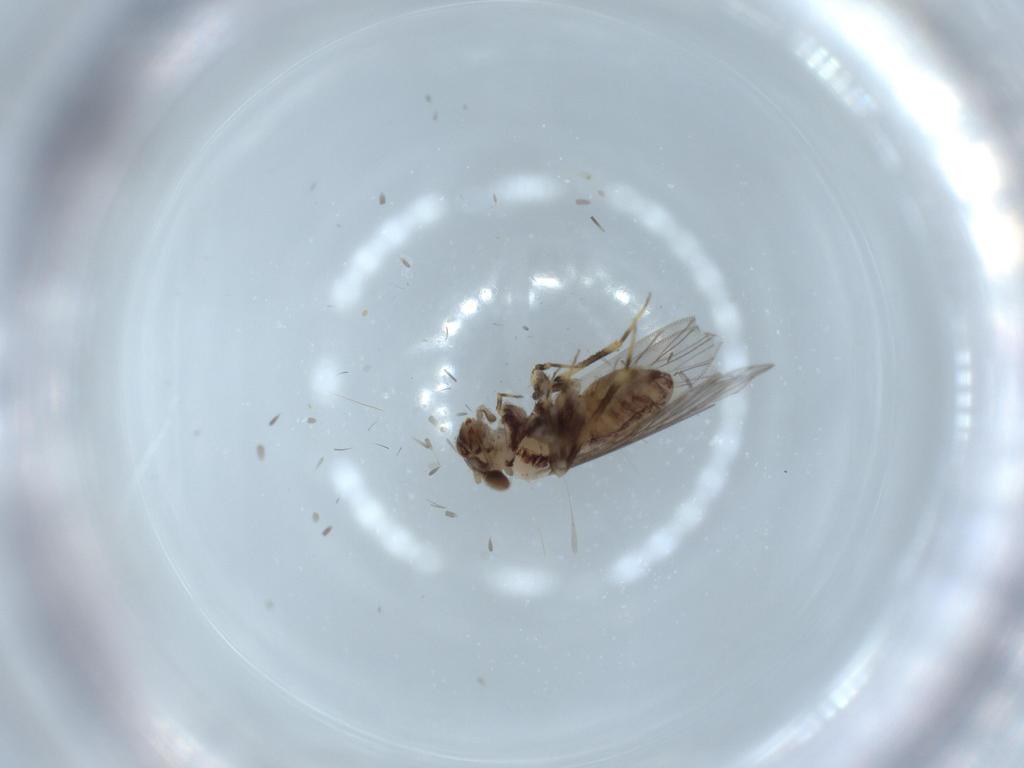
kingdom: Animalia
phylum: Arthropoda
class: Insecta
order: Psocodea
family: Lepidopsocidae
